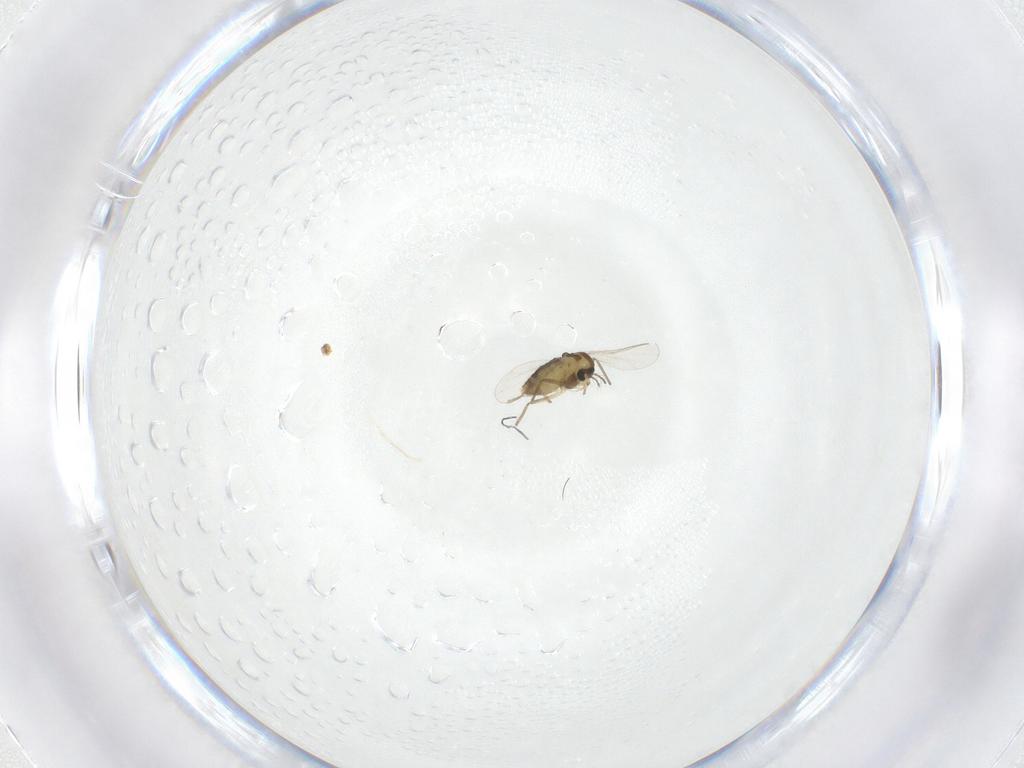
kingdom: Animalia
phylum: Arthropoda
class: Insecta
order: Diptera
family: Chironomidae
